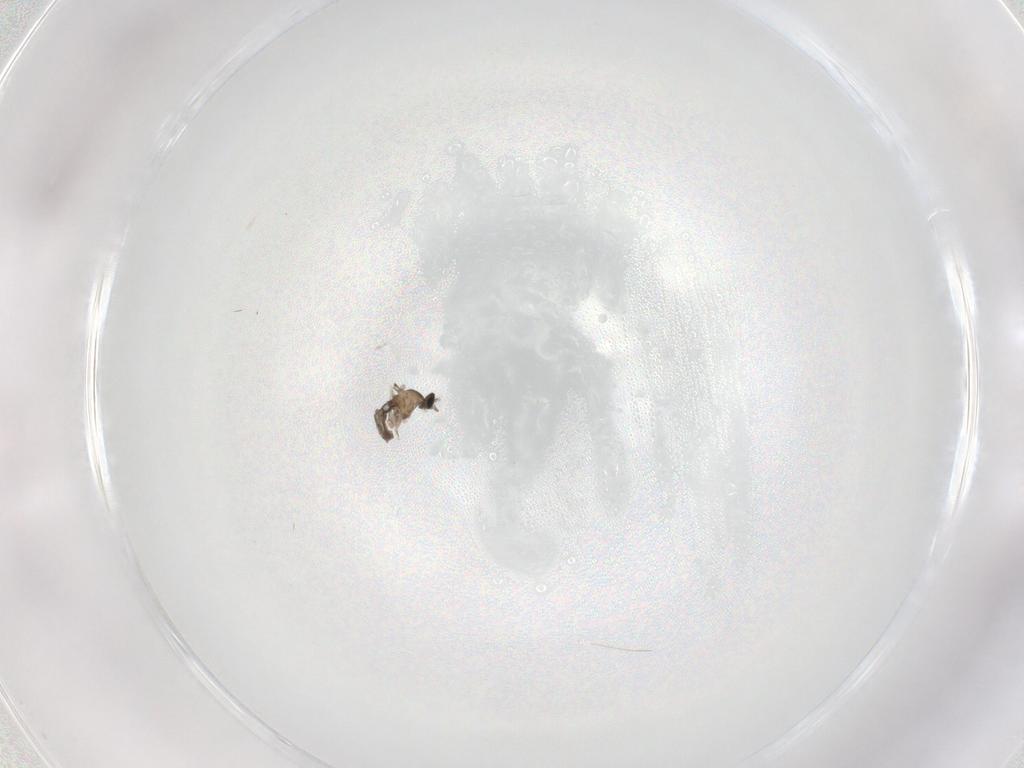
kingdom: Animalia
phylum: Arthropoda
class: Insecta
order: Diptera
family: Cecidomyiidae
